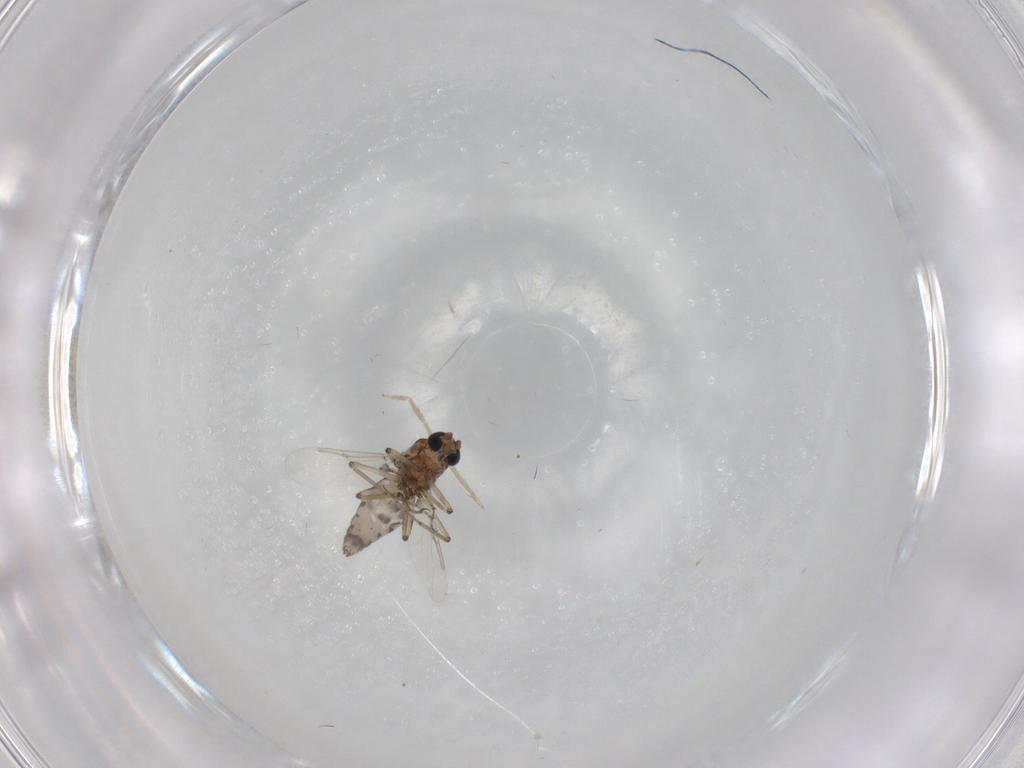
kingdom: Animalia
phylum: Arthropoda
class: Insecta
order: Diptera
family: Ceratopogonidae
